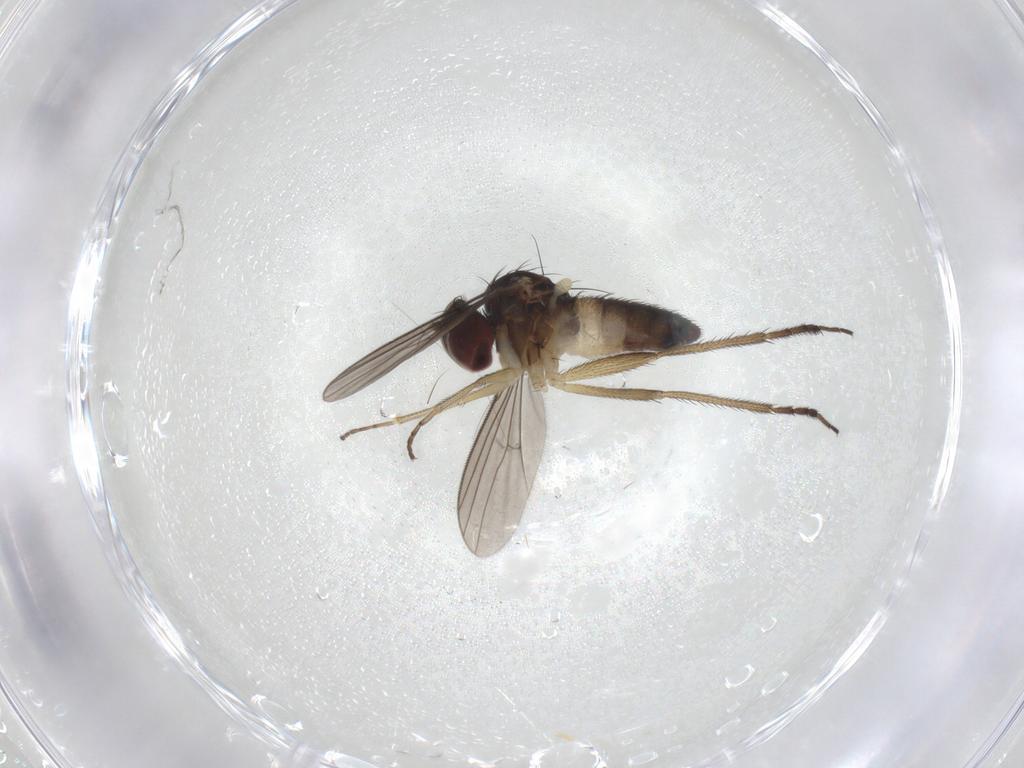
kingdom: Animalia
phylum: Arthropoda
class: Insecta
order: Diptera
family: Dolichopodidae
